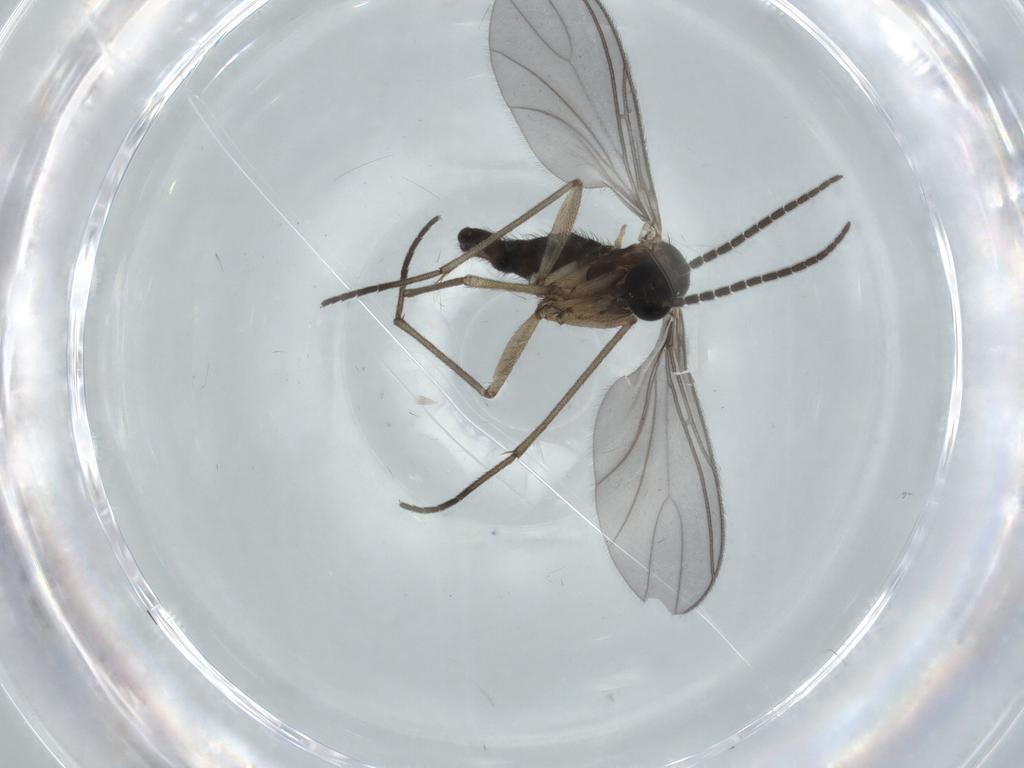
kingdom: Animalia
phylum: Arthropoda
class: Insecta
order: Diptera
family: Sciaridae
